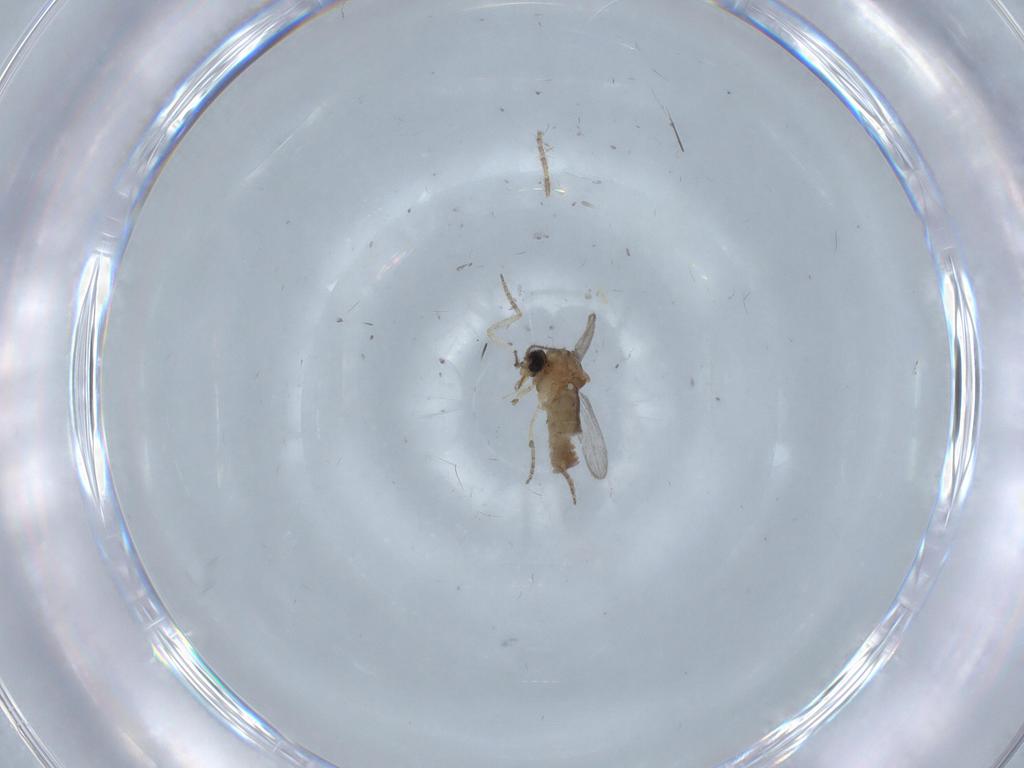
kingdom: Animalia
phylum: Arthropoda
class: Insecta
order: Diptera
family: Ceratopogonidae
